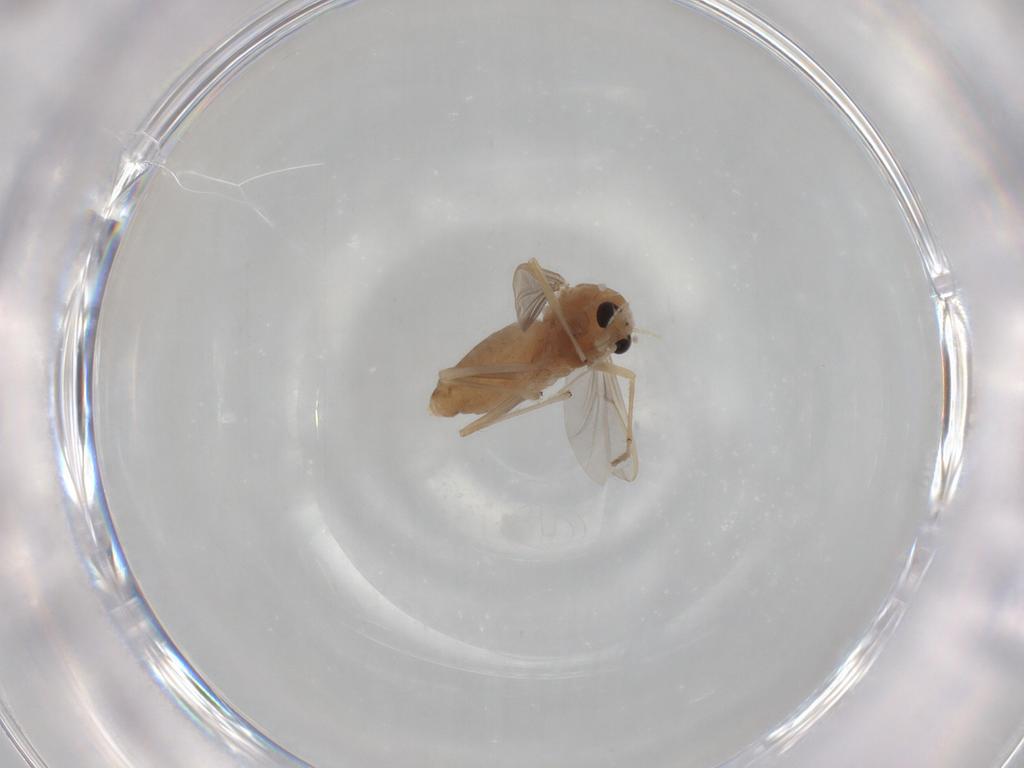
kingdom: Animalia
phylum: Arthropoda
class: Insecta
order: Diptera
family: Chironomidae
